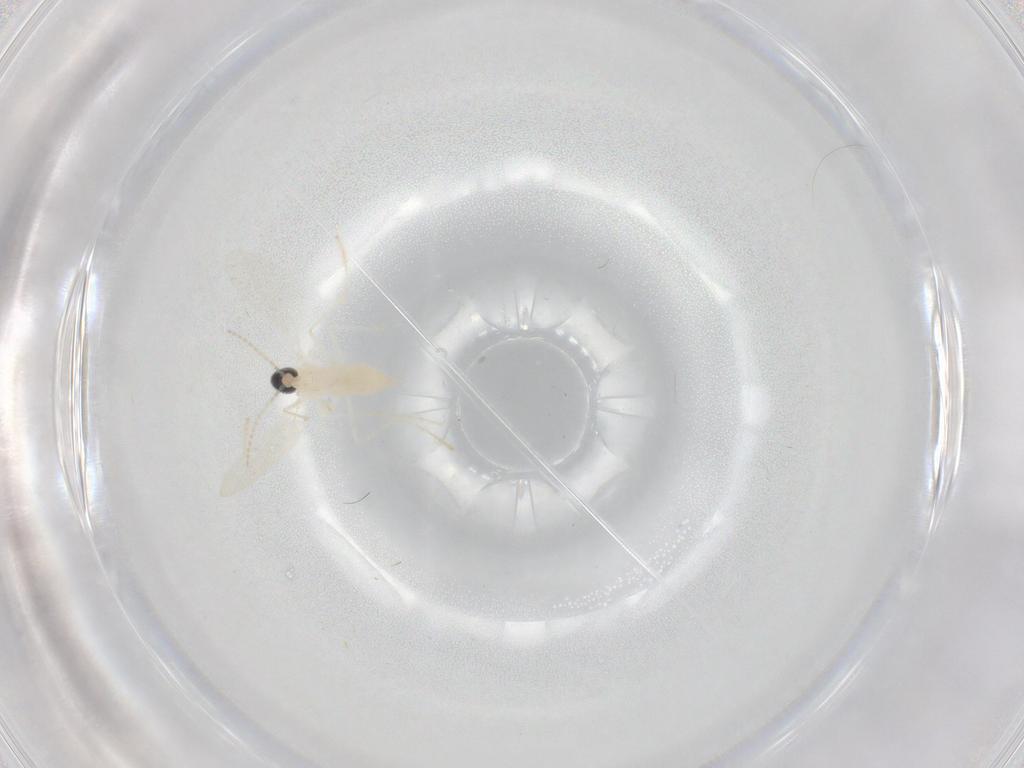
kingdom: Animalia
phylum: Arthropoda
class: Insecta
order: Diptera
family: Cecidomyiidae
